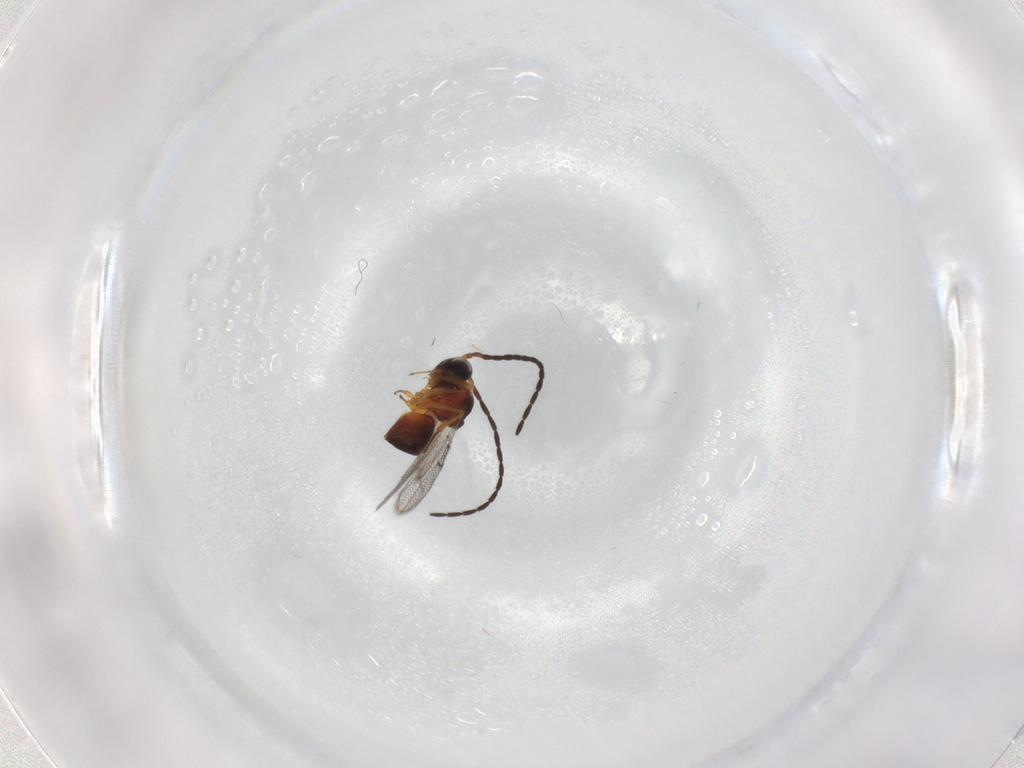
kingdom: Animalia
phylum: Arthropoda
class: Insecta
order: Hymenoptera
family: Figitidae
